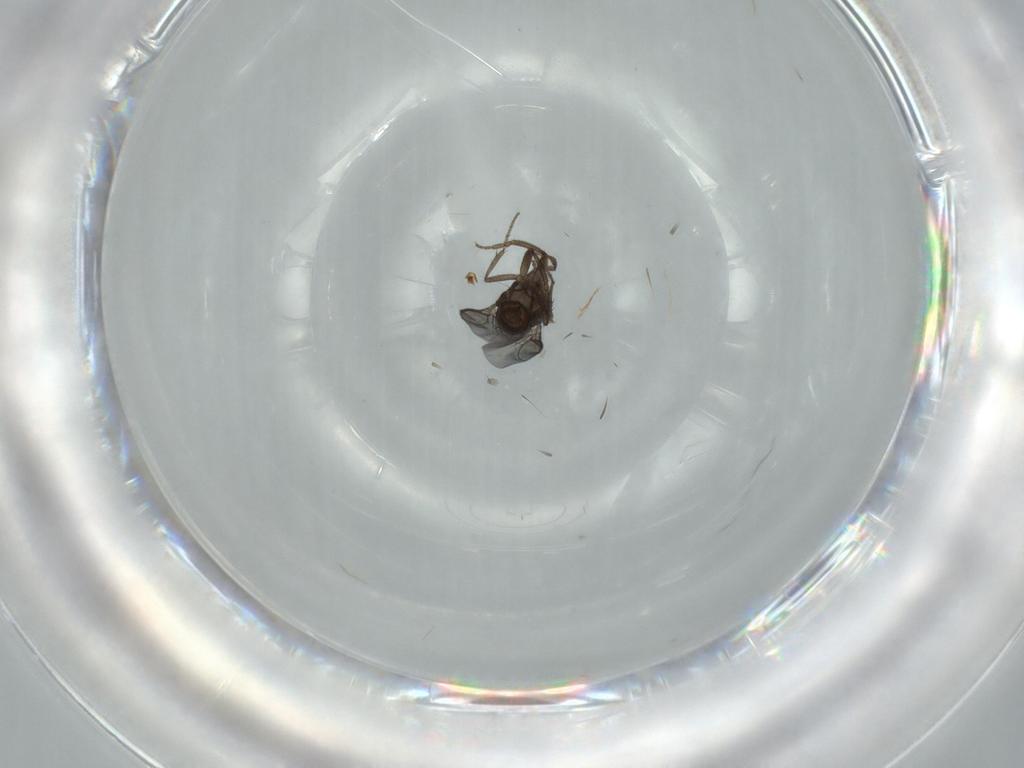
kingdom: Animalia
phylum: Arthropoda
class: Insecta
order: Diptera
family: Sphaeroceridae
